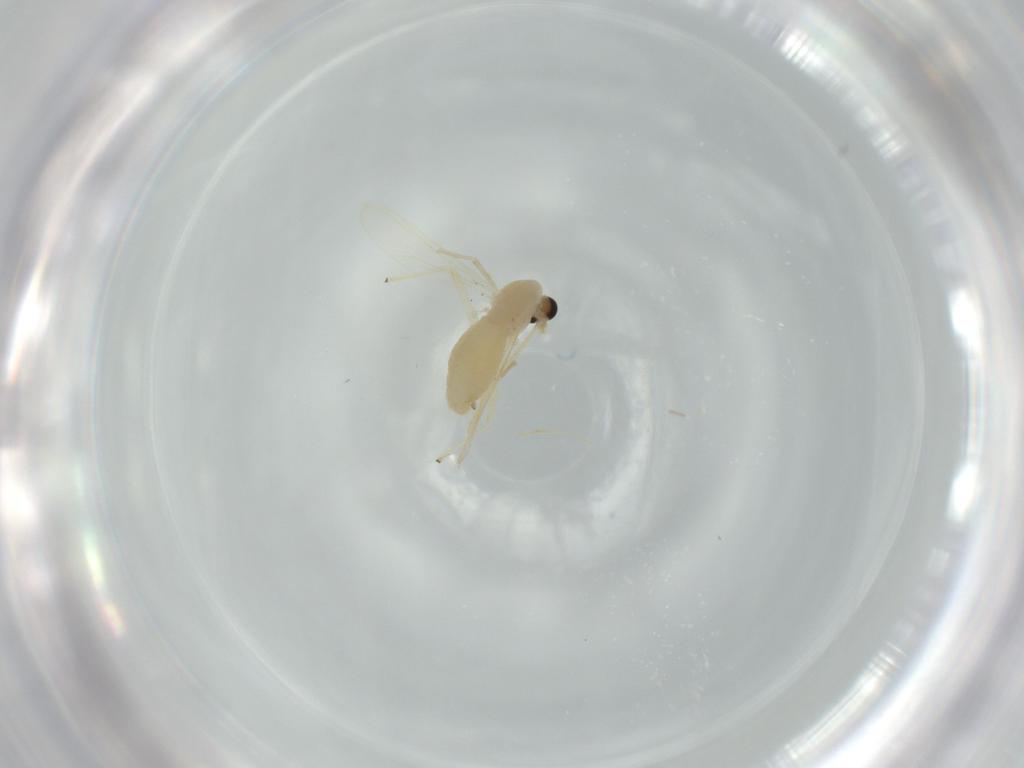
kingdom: Animalia
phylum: Arthropoda
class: Insecta
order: Diptera
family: Chironomidae
